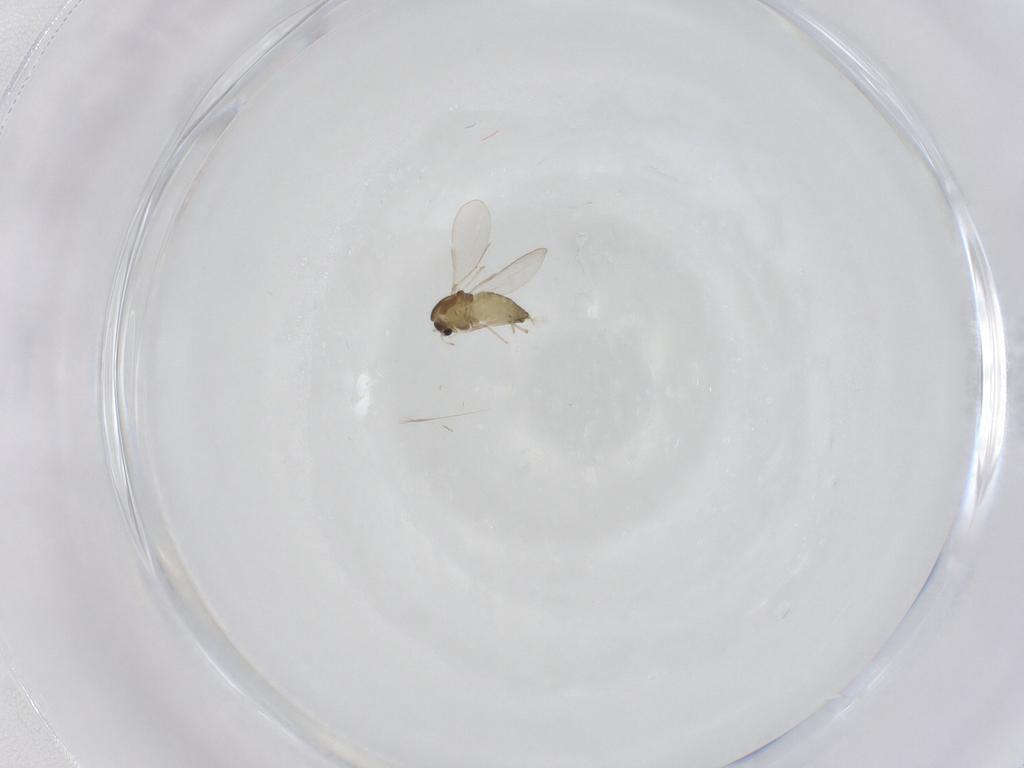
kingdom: Animalia
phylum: Arthropoda
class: Insecta
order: Diptera
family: Chironomidae
